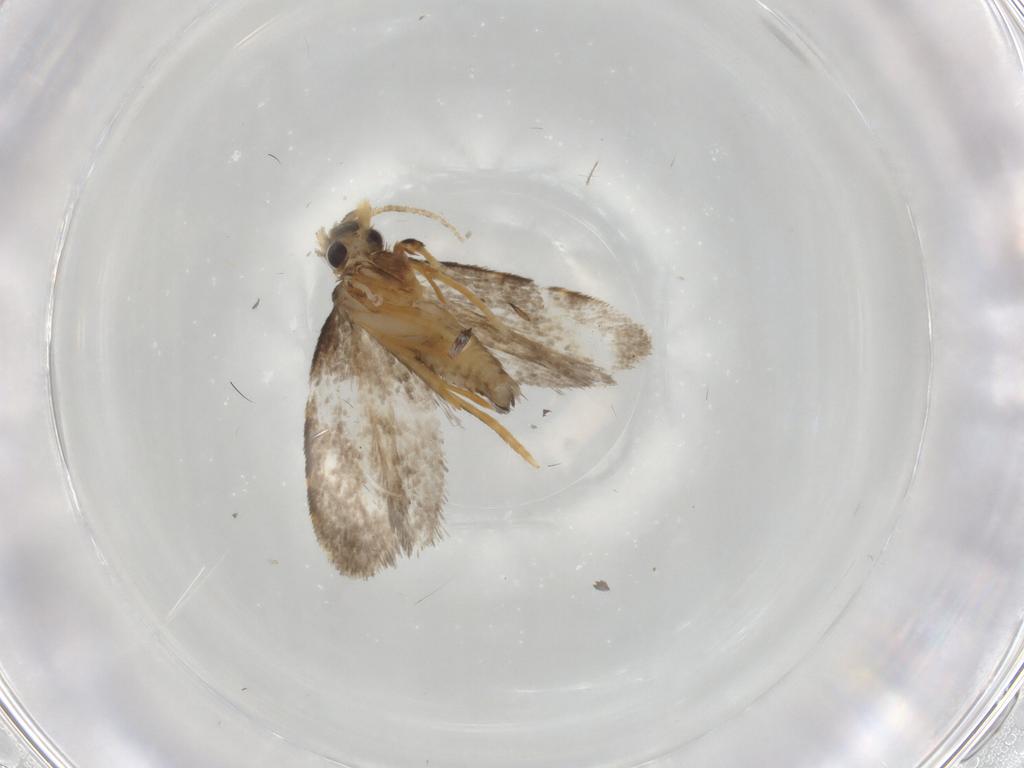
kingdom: Animalia
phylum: Arthropoda
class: Insecta
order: Lepidoptera
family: Psychidae
